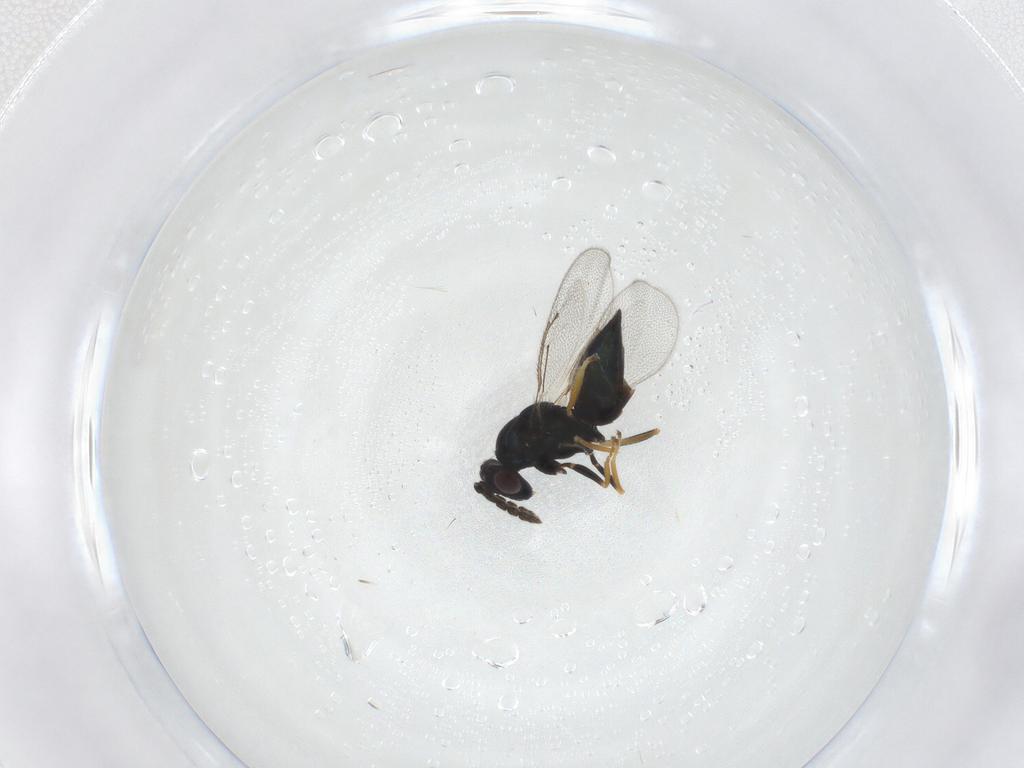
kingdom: Animalia
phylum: Arthropoda
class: Insecta
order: Hymenoptera
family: Eulophidae
